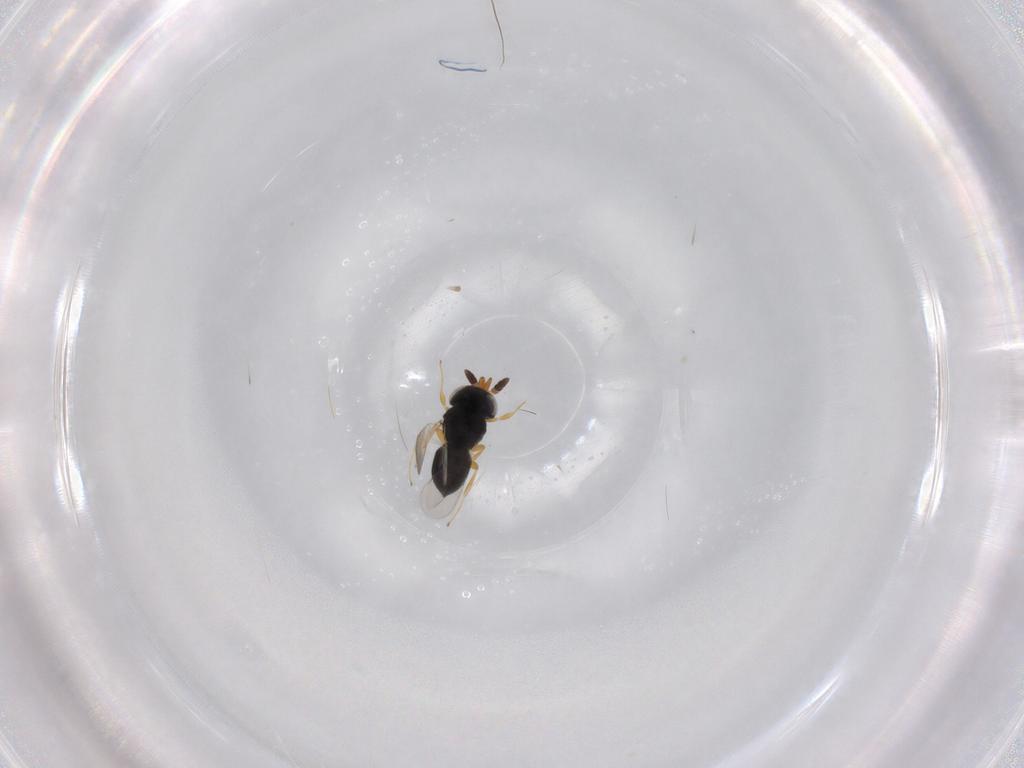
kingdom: Animalia
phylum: Arthropoda
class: Insecta
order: Hymenoptera
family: Scelionidae
